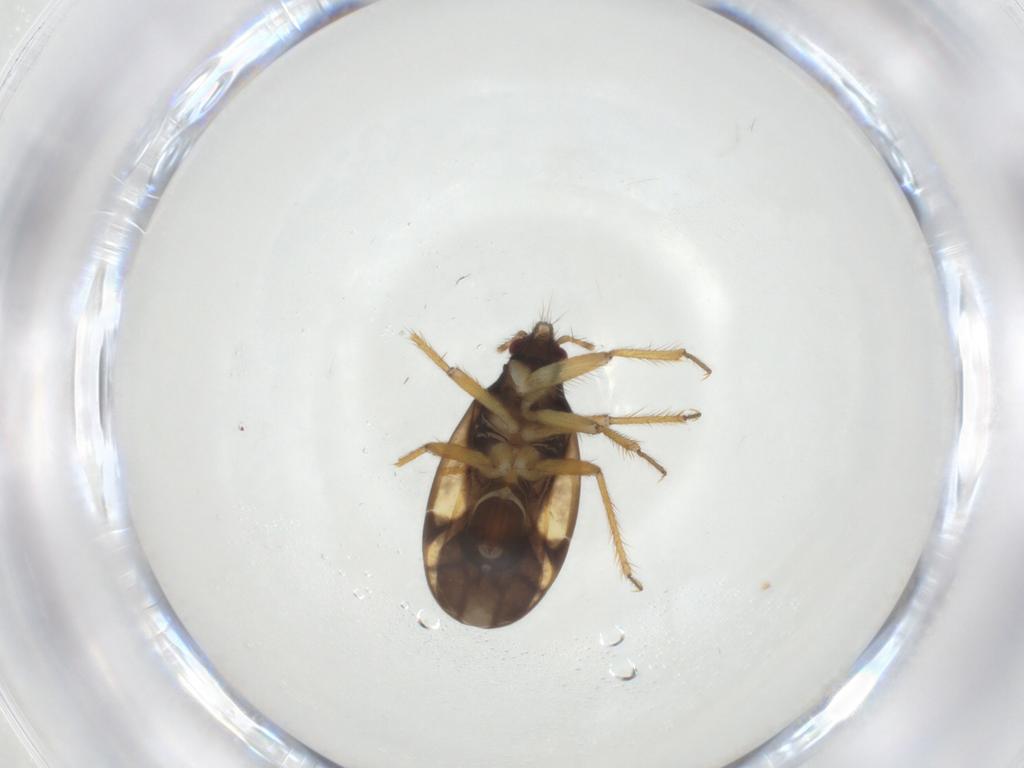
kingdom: Animalia
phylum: Arthropoda
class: Insecta
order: Hemiptera
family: Ceratocombidae
